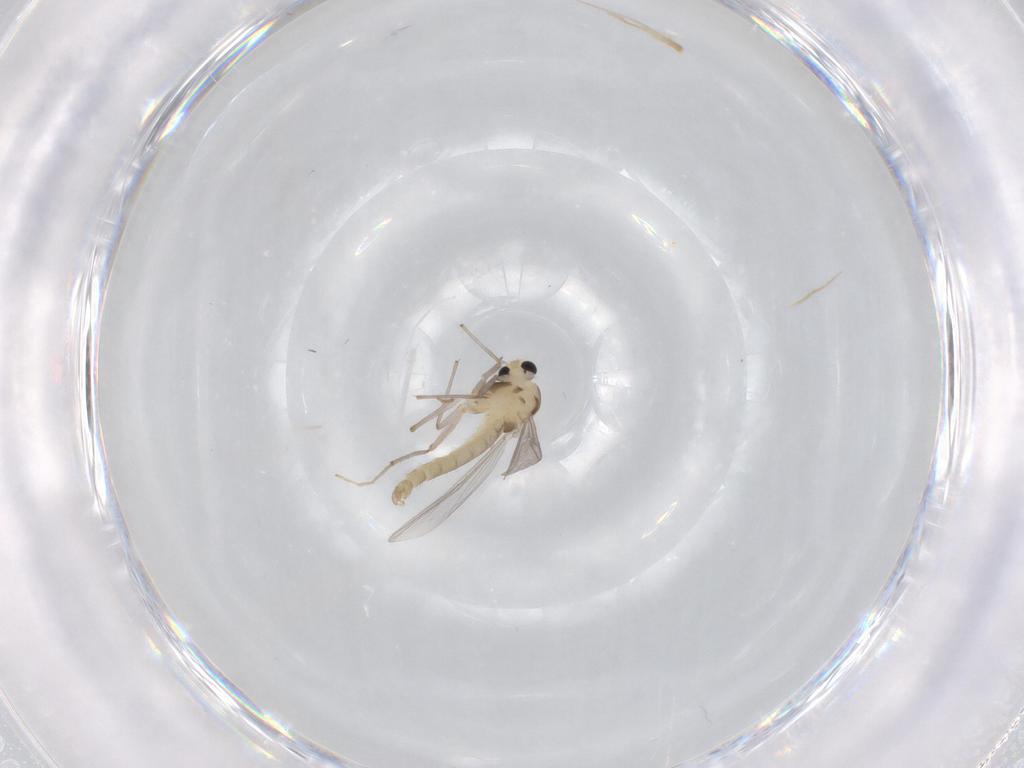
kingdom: Animalia
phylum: Arthropoda
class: Insecta
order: Diptera
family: Chironomidae
